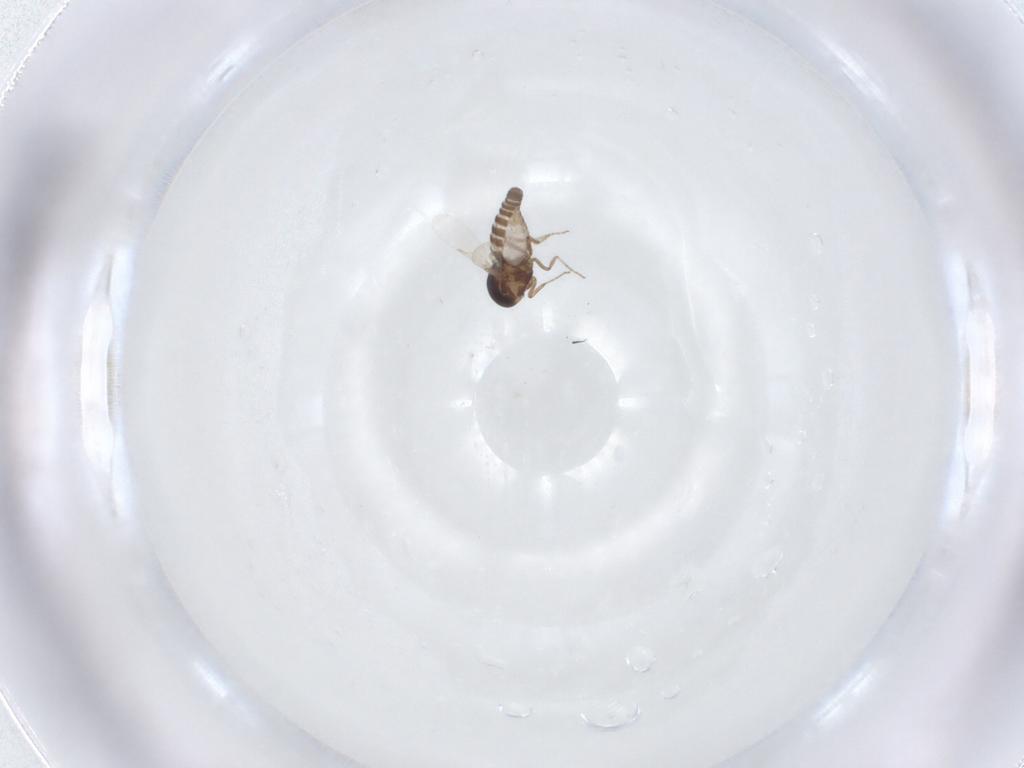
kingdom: Animalia
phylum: Arthropoda
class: Insecta
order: Diptera
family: Ceratopogonidae
